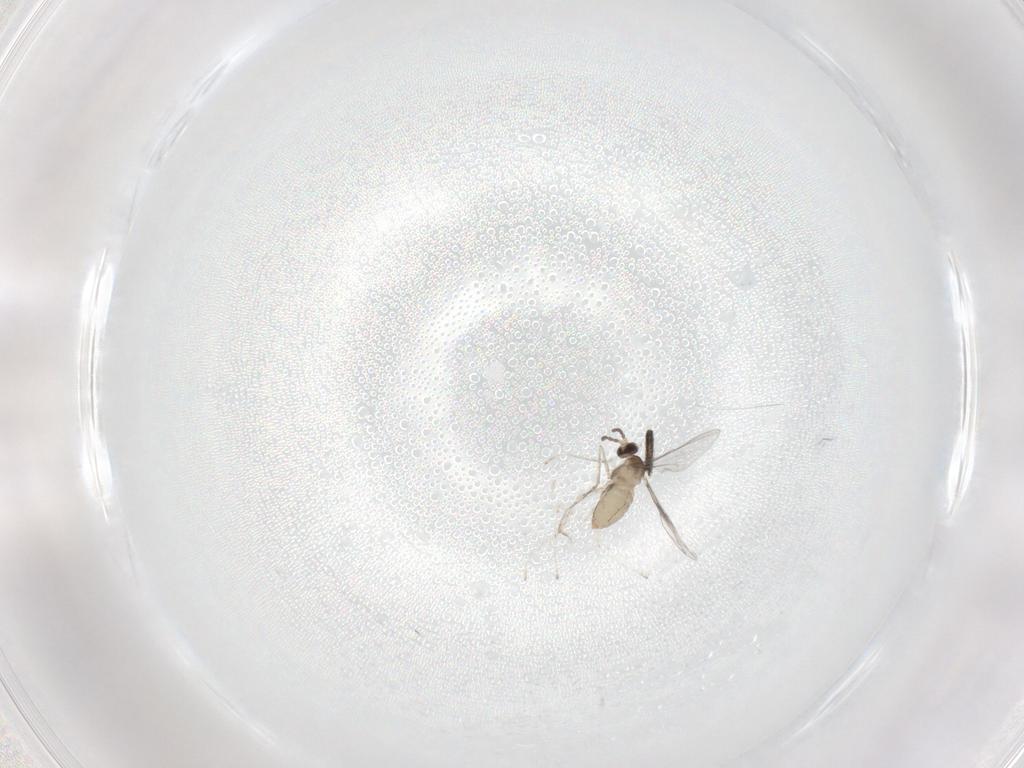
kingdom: Animalia
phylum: Arthropoda
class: Insecta
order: Diptera
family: Cecidomyiidae
